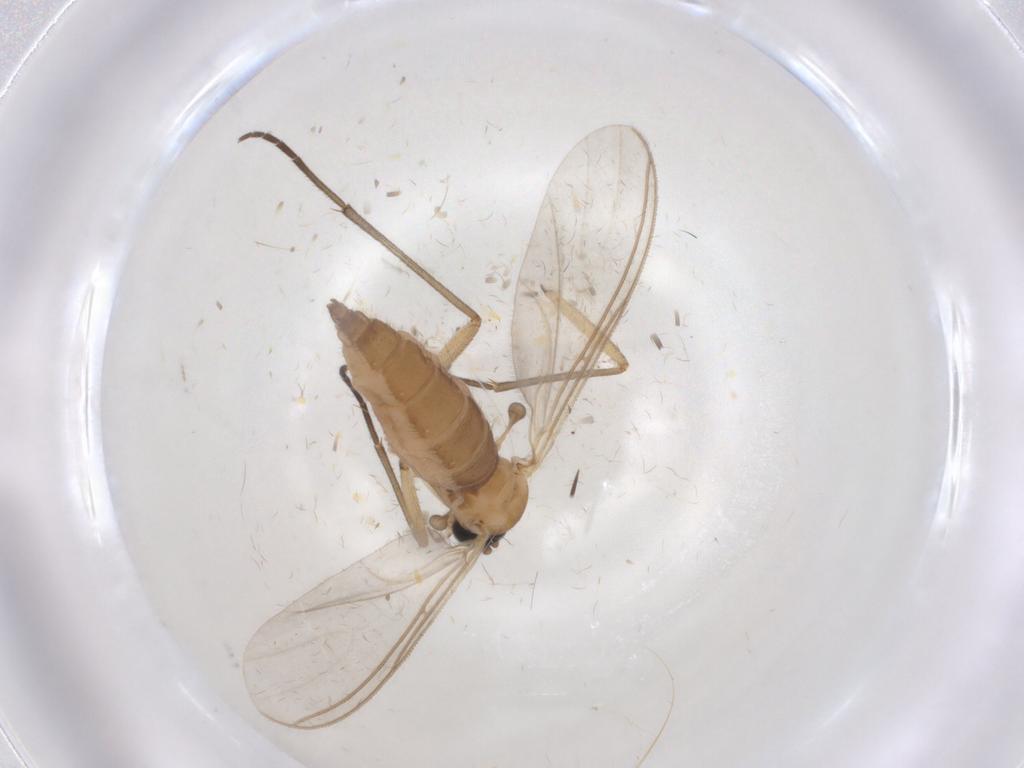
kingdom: Animalia
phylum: Arthropoda
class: Insecta
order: Diptera
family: Sciaridae
